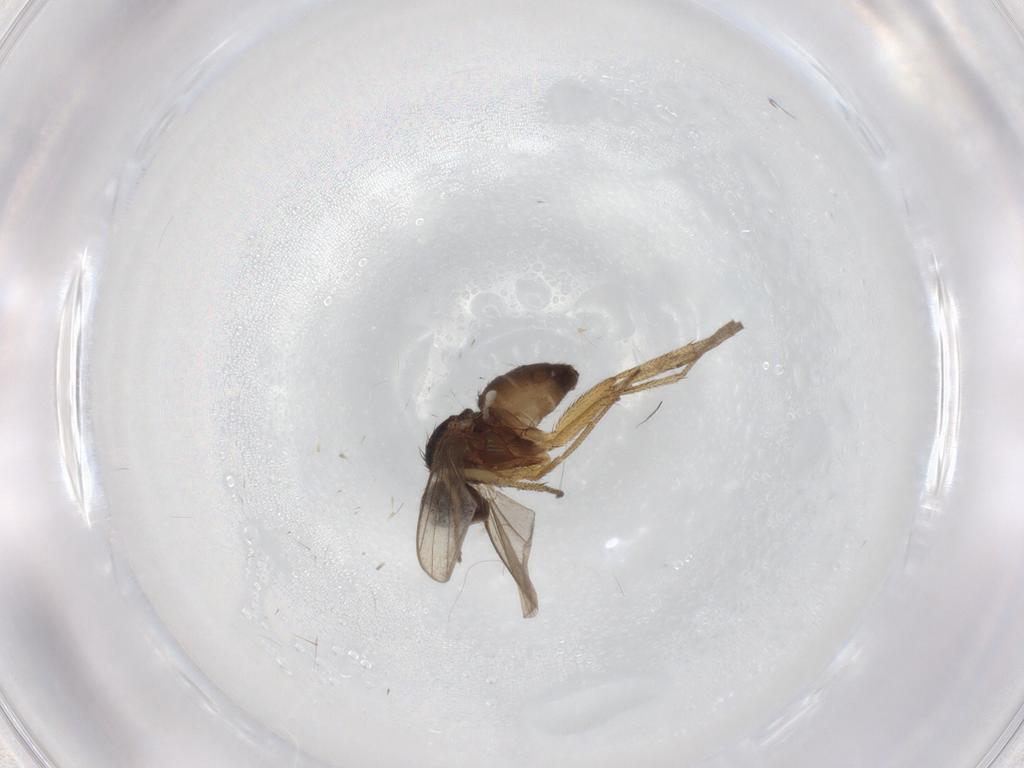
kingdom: Animalia
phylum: Arthropoda
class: Insecta
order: Diptera
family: Dolichopodidae
